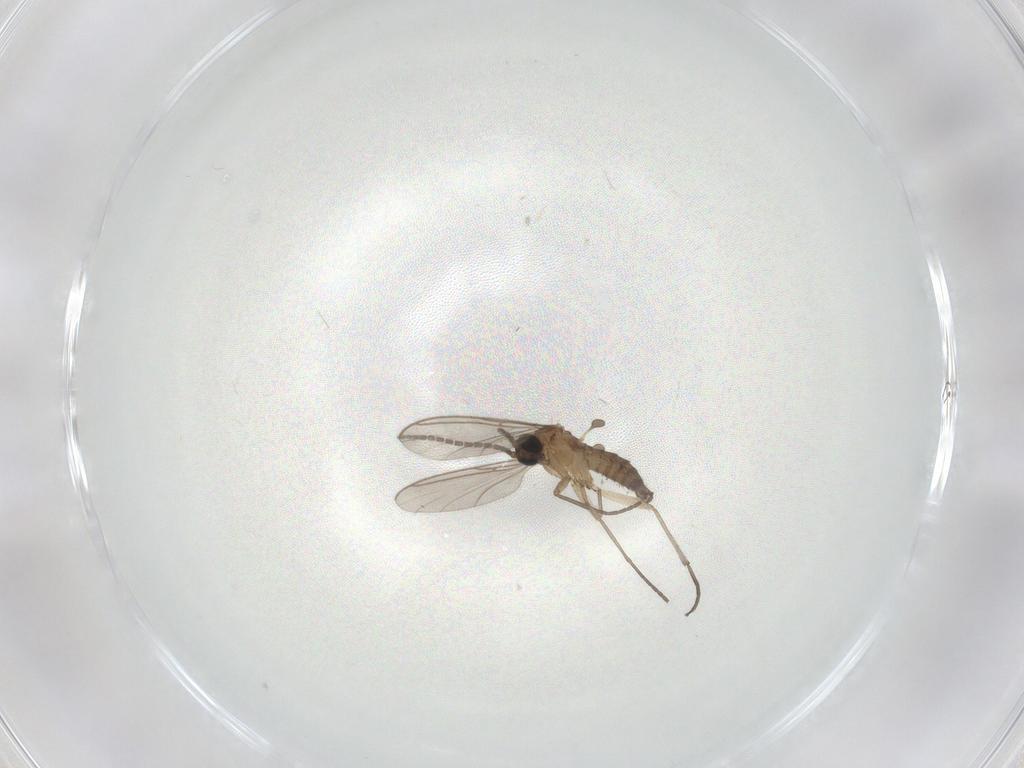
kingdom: Animalia
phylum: Arthropoda
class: Insecta
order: Diptera
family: Sciaridae
